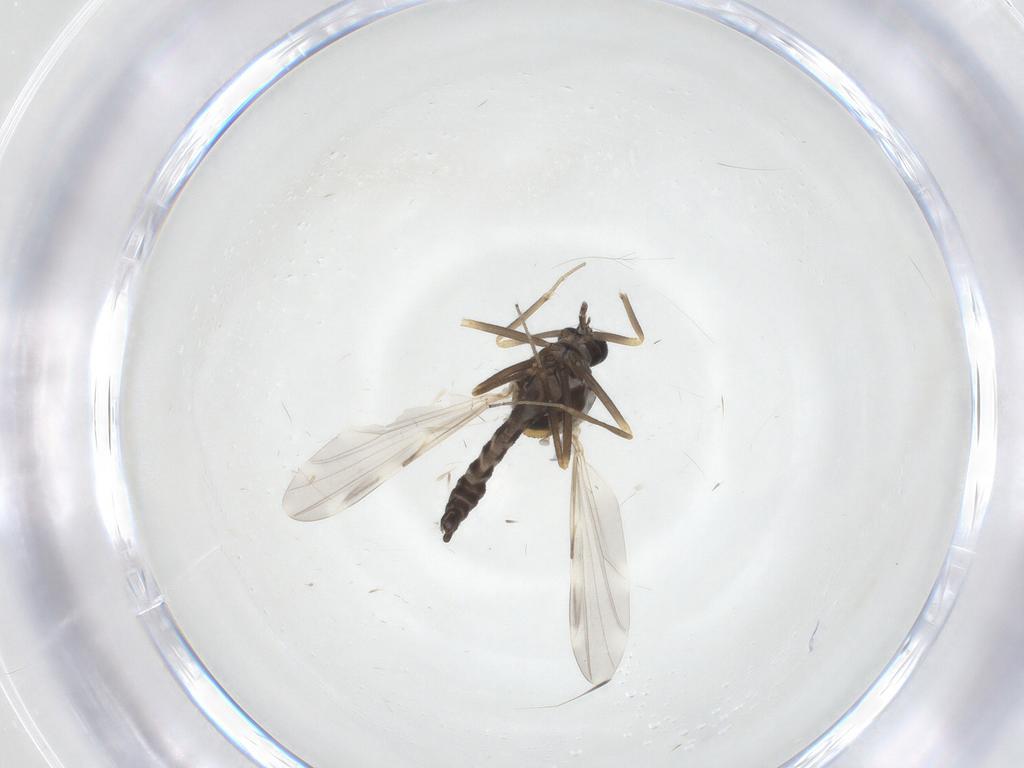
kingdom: Animalia
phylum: Arthropoda
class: Insecta
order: Diptera
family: Ceratopogonidae
